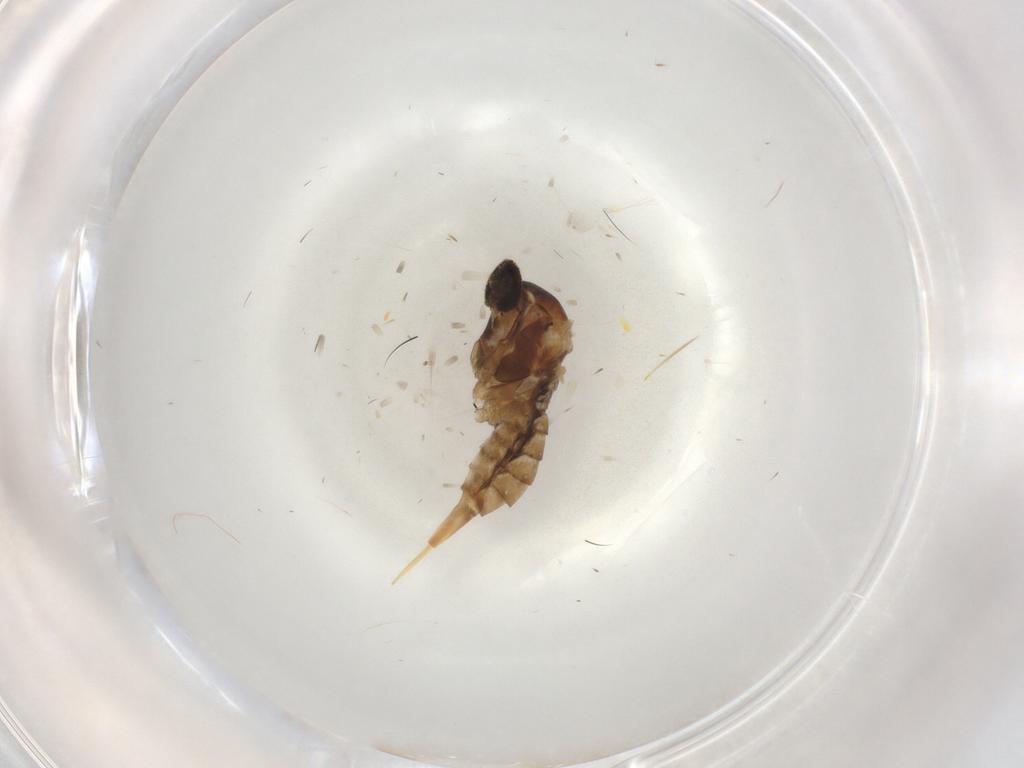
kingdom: Animalia
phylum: Arthropoda
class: Insecta
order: Diptera
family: Cecidomyiidae
